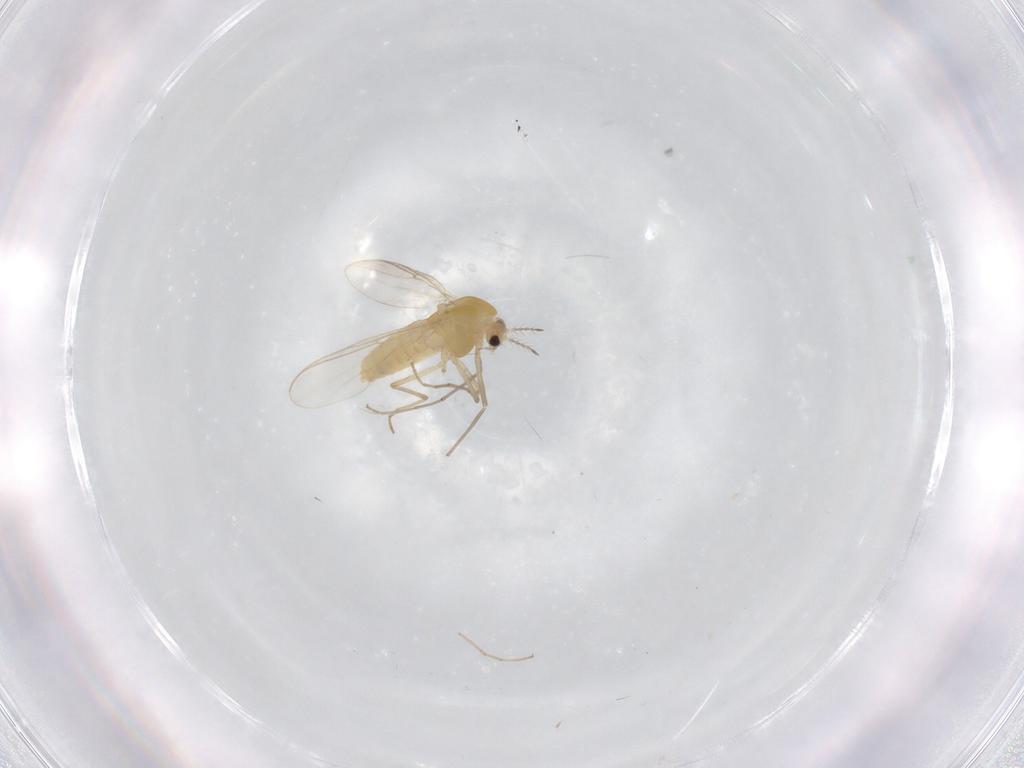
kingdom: Animalia
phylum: Arthropoda
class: Insecta
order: Diptera
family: Chironomidae
